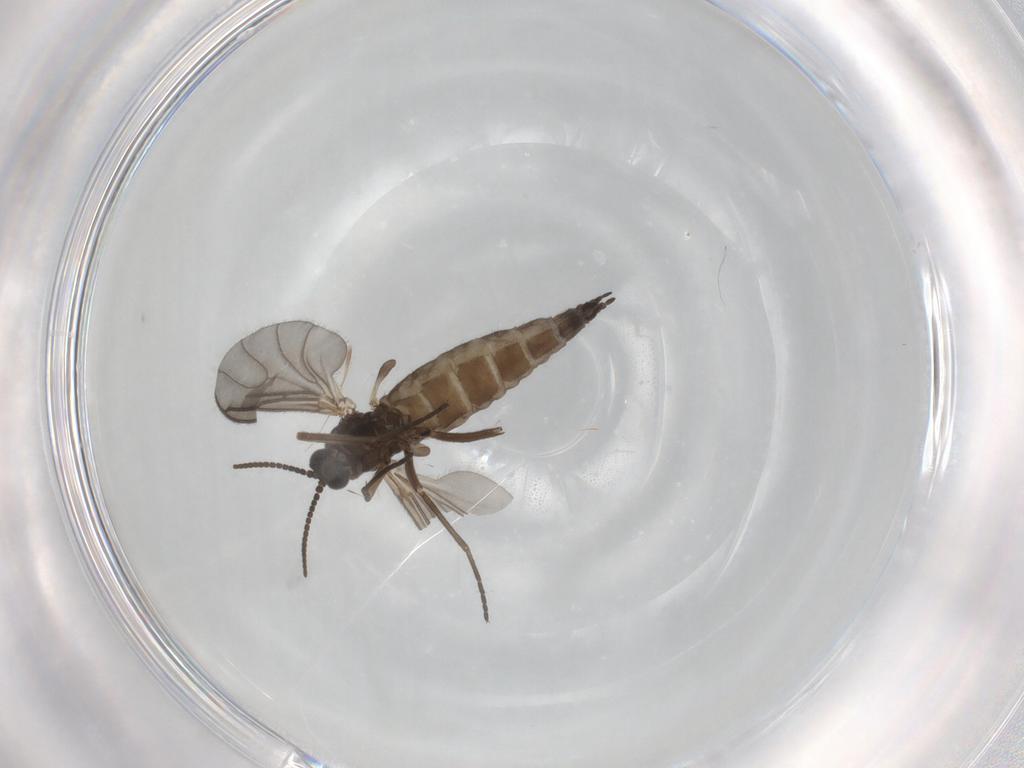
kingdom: Animalia
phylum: Arthropoda
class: Insecta
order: Diptera
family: Sciaridae
